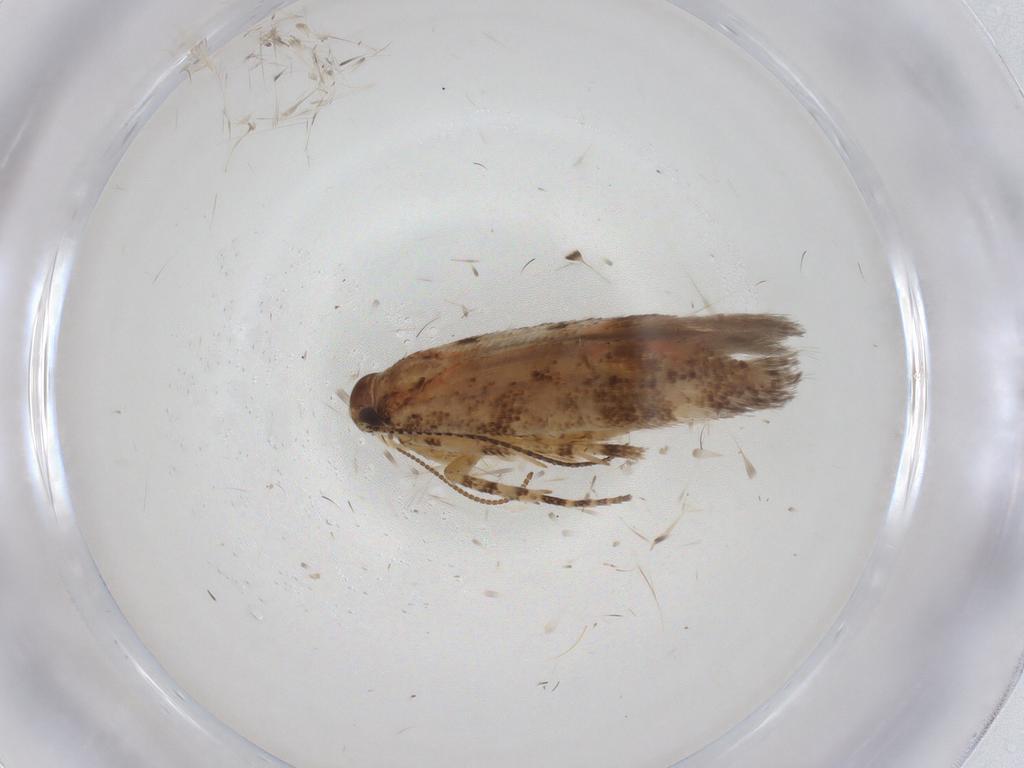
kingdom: Animalia
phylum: Arthropoda
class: Insecta
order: Lepidoptera
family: Gelechiidae
